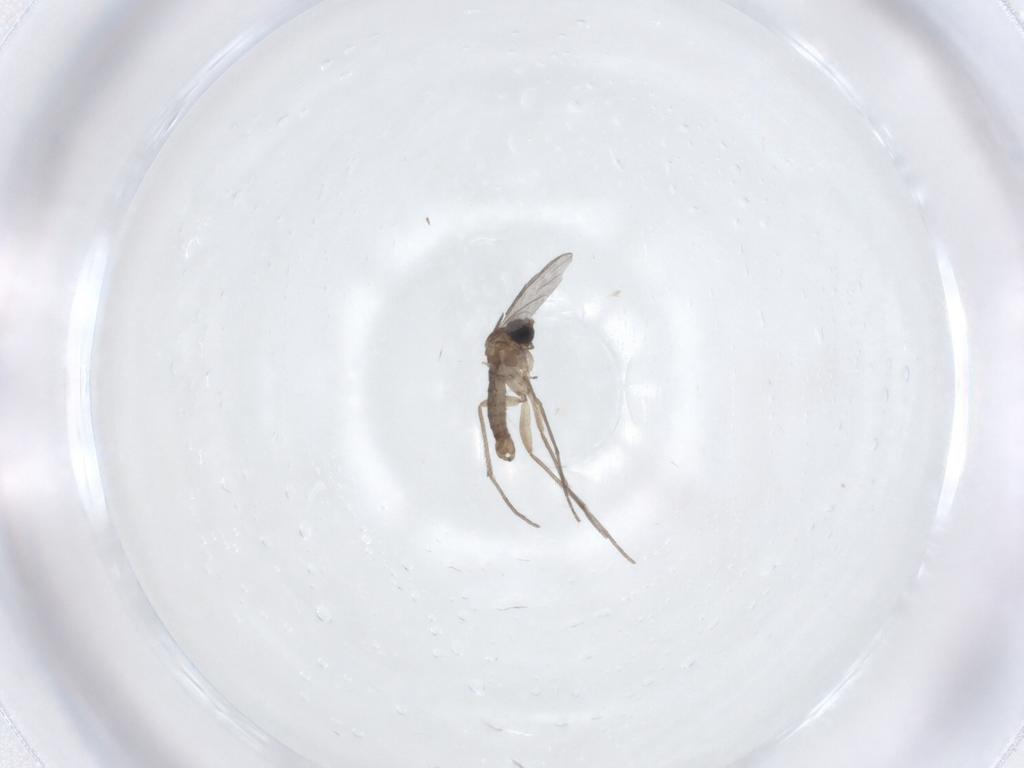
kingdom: Animalia
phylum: Arthropoda
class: Insecta
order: Diptera
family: Sciaridae
